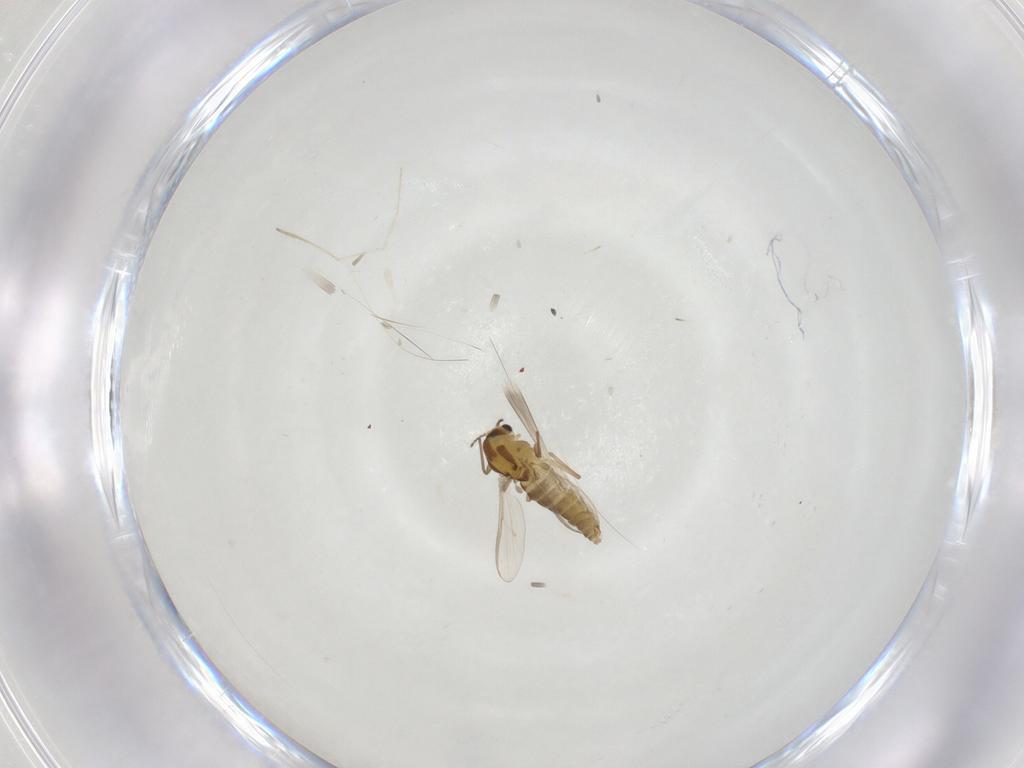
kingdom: Animalia
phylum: Arthropoda
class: Insecta
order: Diptera
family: Chironomidae
